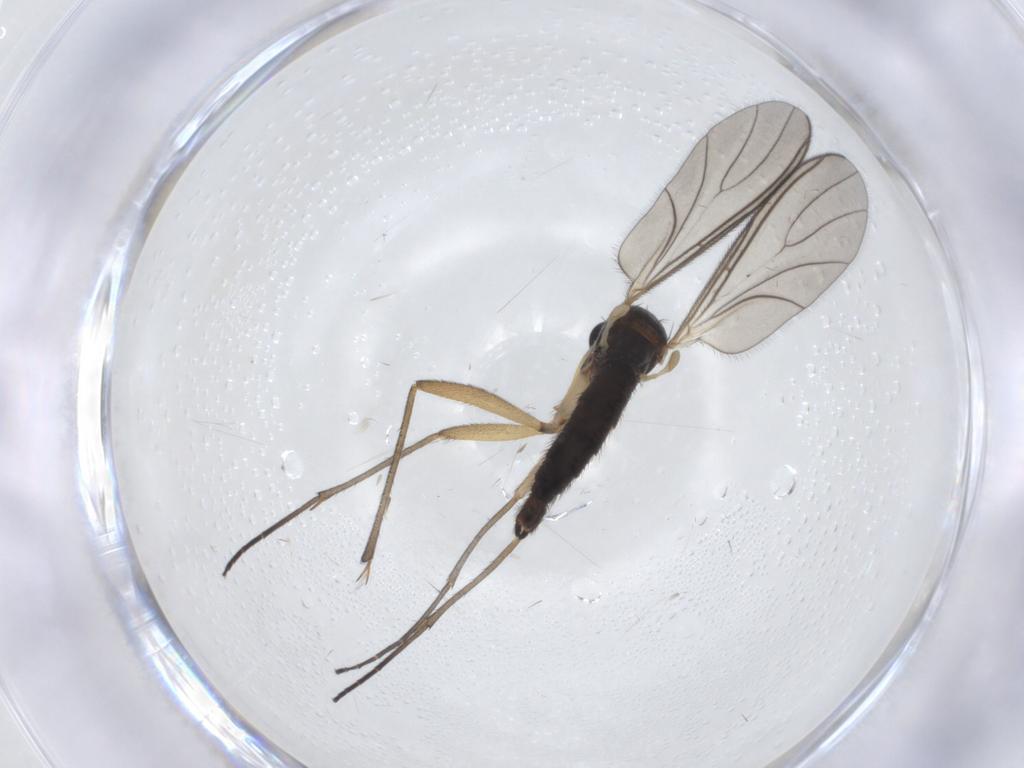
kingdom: Animalia
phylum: Arthropoda
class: Insecta
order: Diptera
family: Sciaridae
